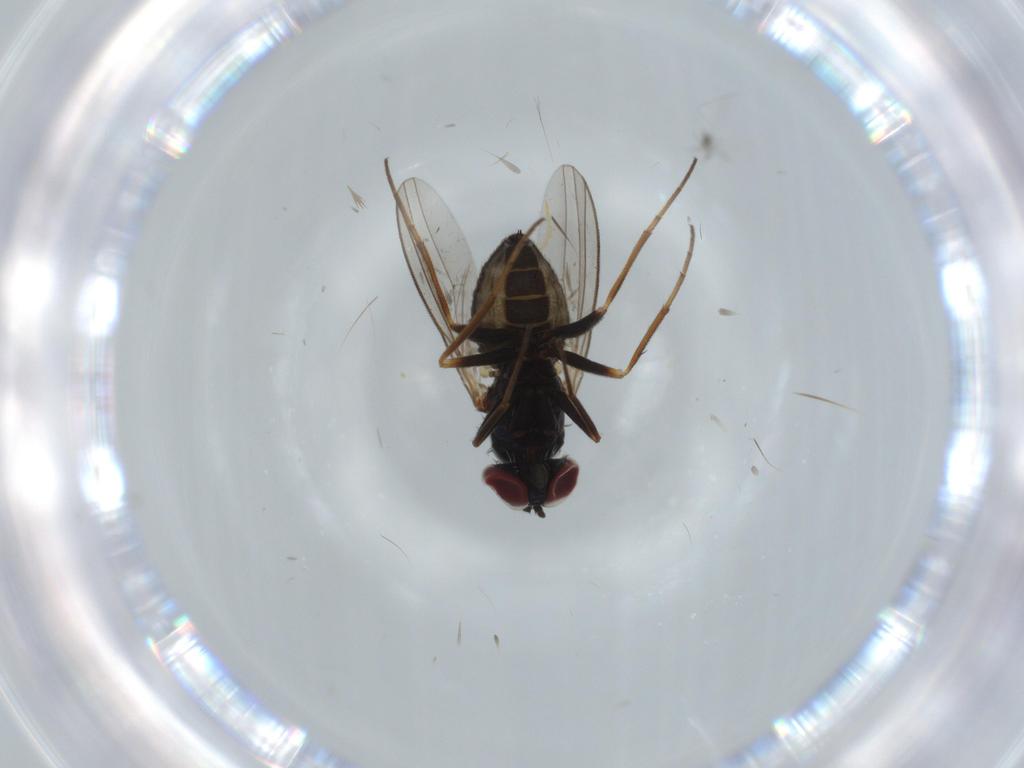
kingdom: Animalia
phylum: Arthropoda
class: Insecta
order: Diptera
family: Dolichopodidae
